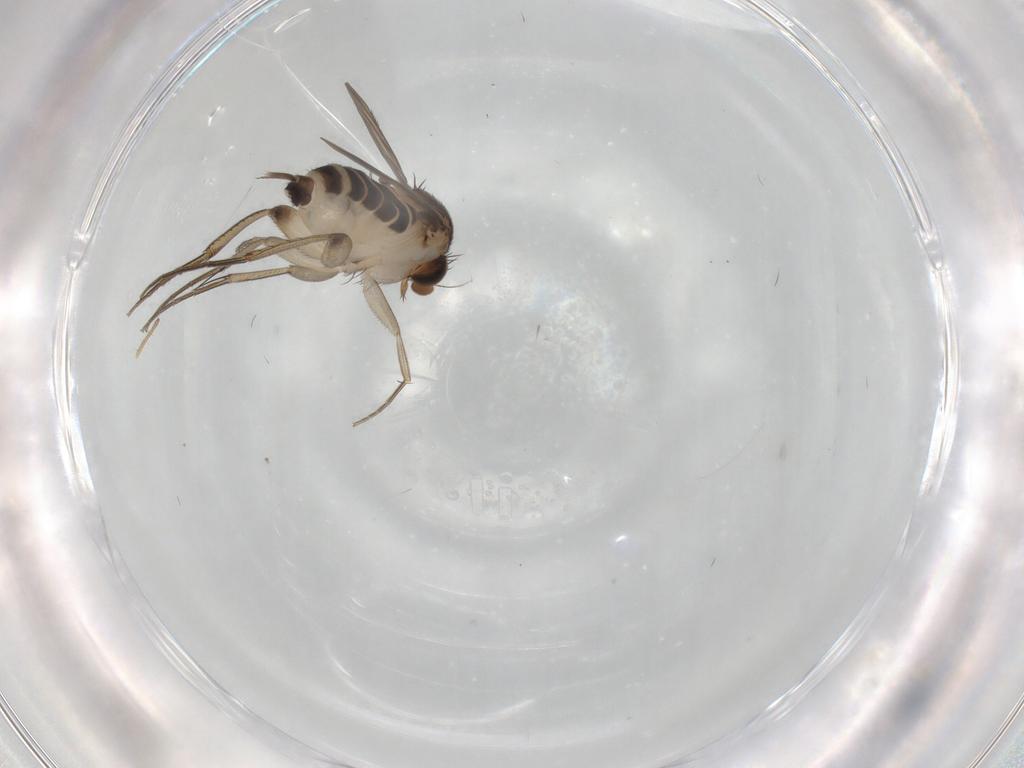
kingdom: Animalia
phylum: Arthropoda
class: Insecta
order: Diptera
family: Phoridae
